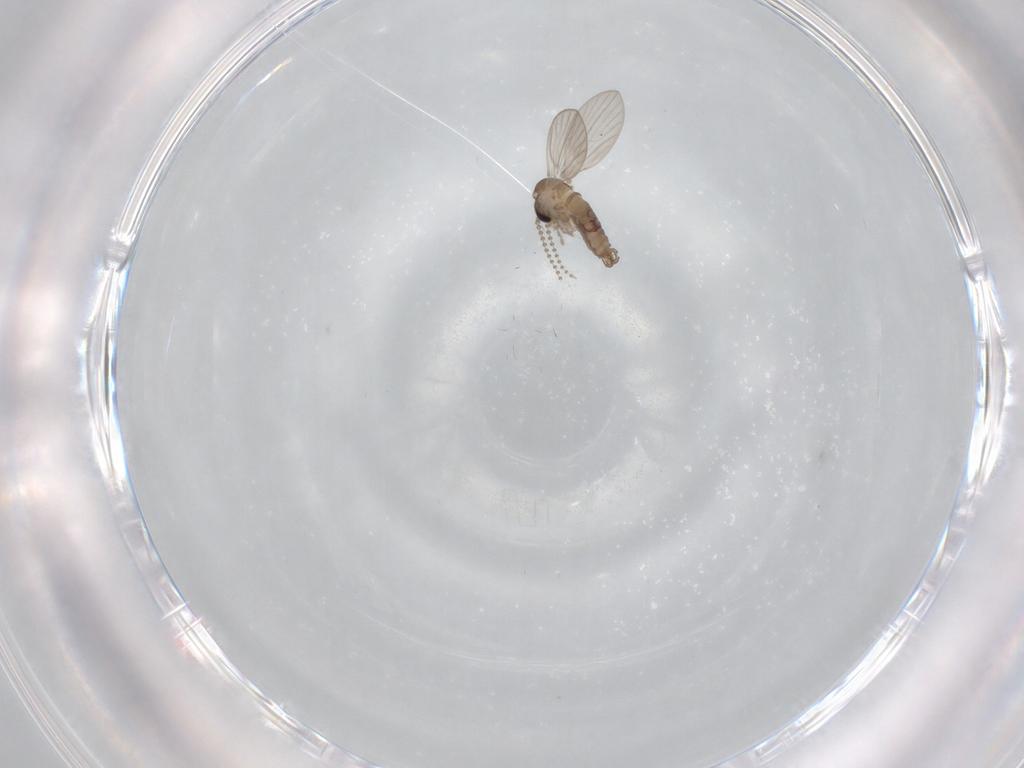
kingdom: Animalia
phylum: Arthropoda
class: Insecta
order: Diptera
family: Psychodidae
